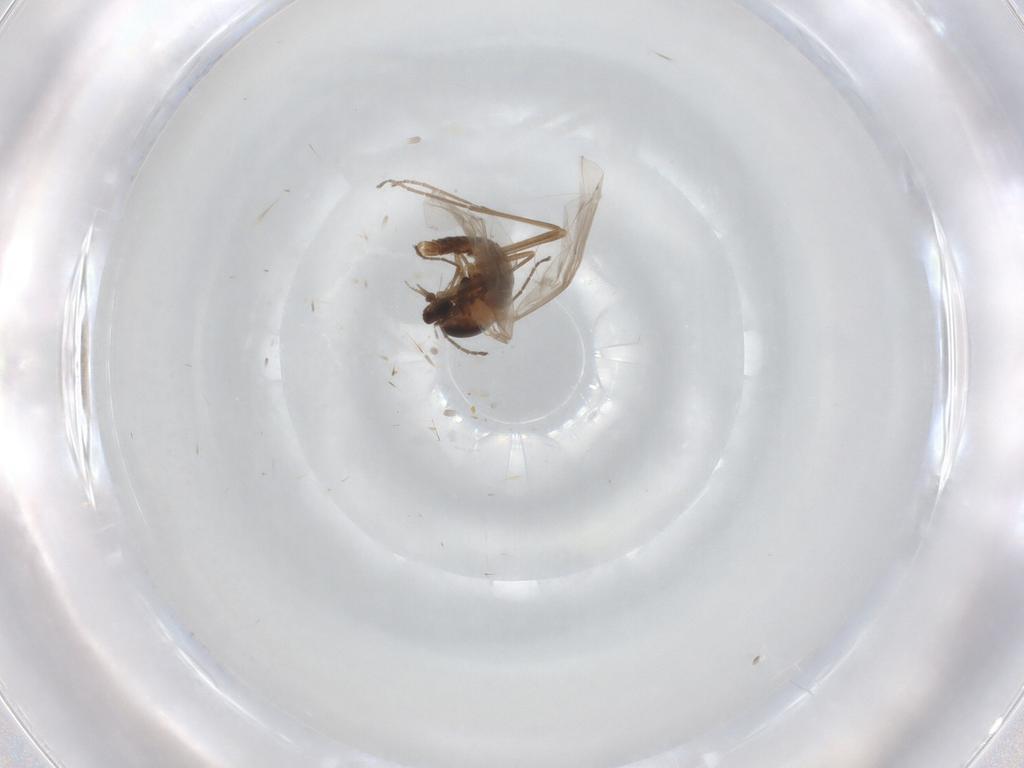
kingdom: Animalia
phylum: Arthropoda
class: Insecta
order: Diptera
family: Cecidomyiidae
